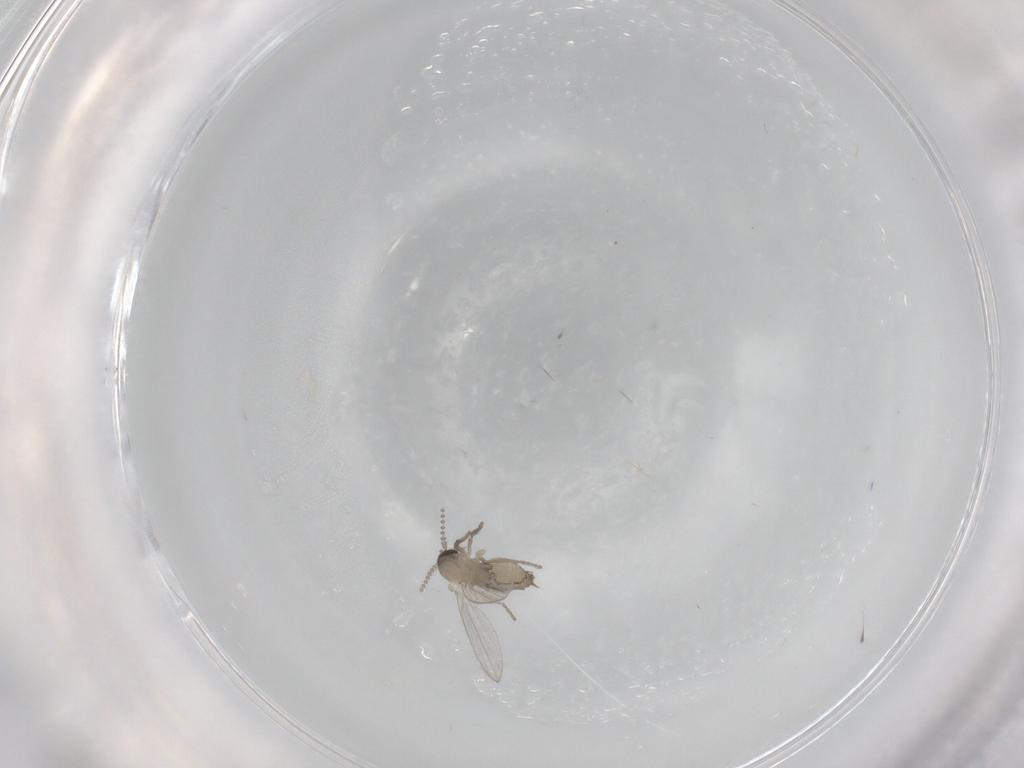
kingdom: Animalia
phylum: Arthropoda
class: Insecta
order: Diptera
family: Psychodidae
